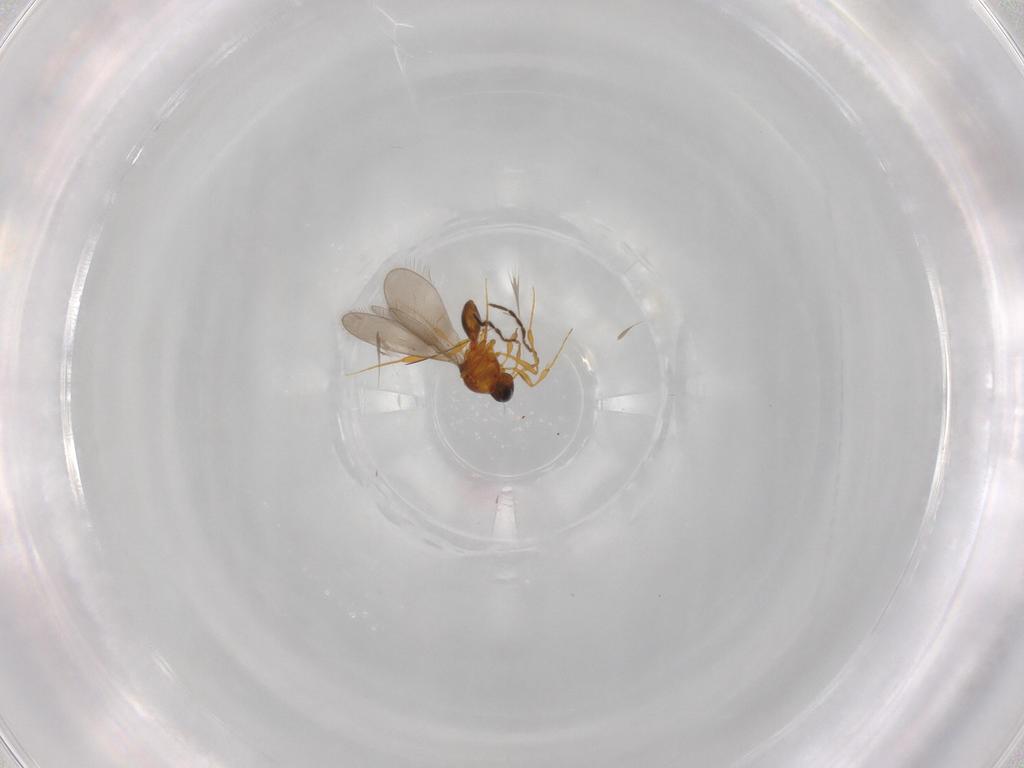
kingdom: Animalia
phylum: Arthropoda
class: Insecta
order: Hymenoptera
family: Platygastridae
